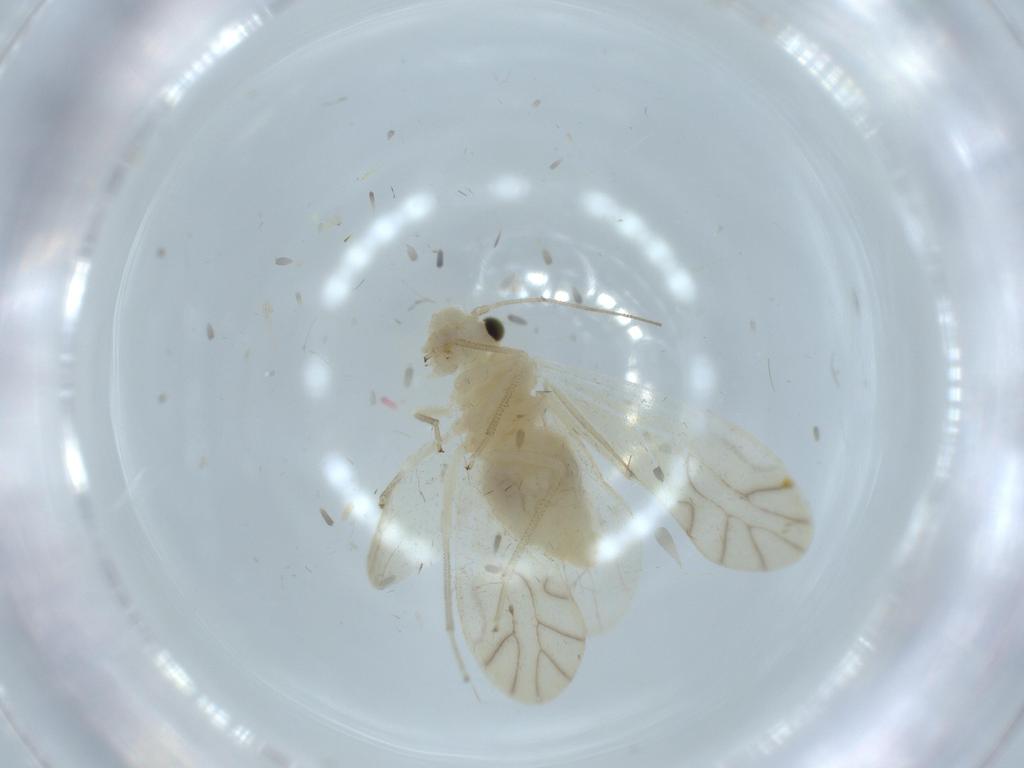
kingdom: Animalia
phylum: Arthropoda
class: Insecta
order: Psocodea
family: Caeciliusidae
